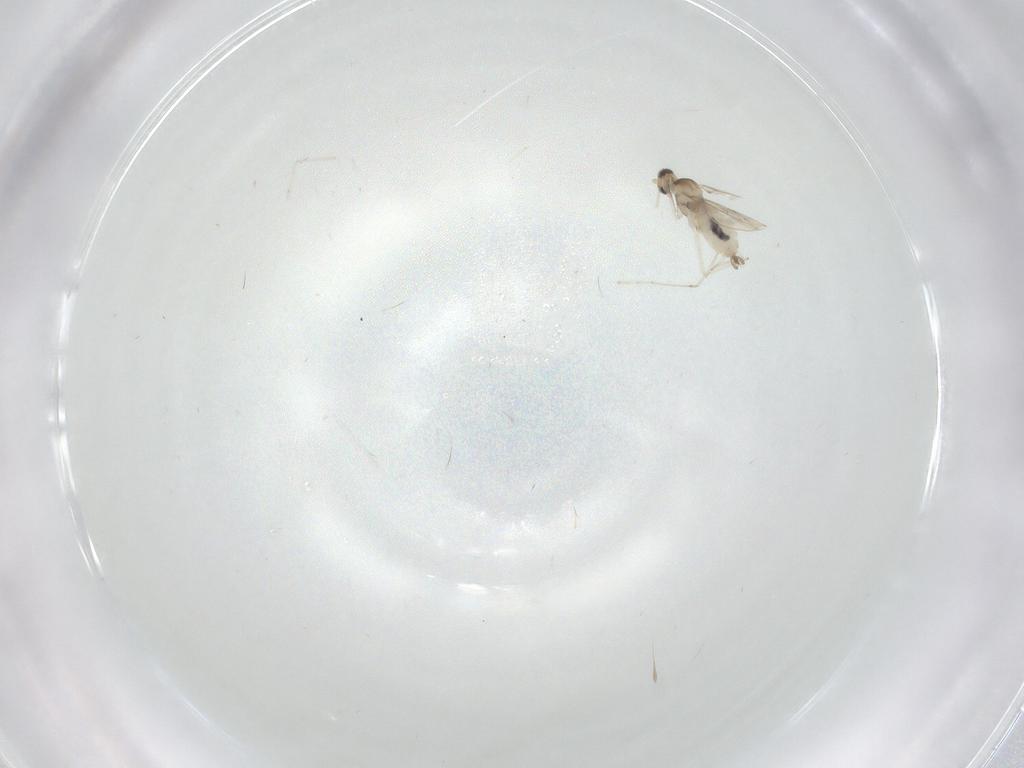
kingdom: Animalia
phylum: Arthropoda
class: Insecta
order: Diptera
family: Cecidomyiidae
